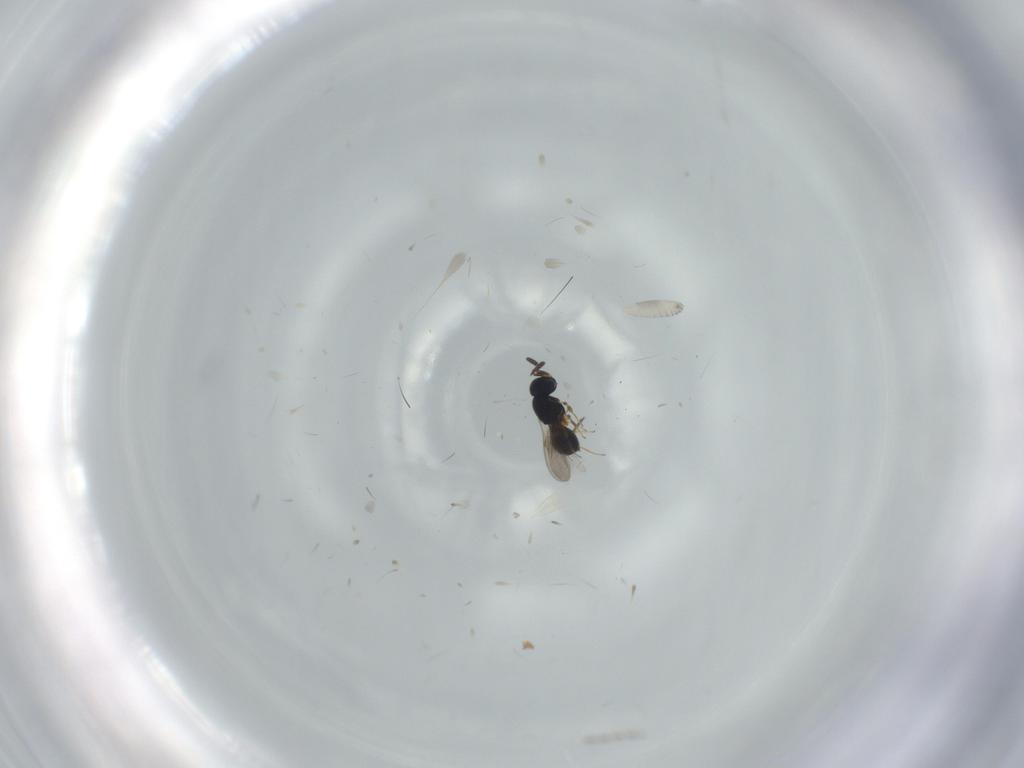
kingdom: Animalia
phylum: Arthropoda
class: Insecta
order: Hymenoptera
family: Scelionidae
